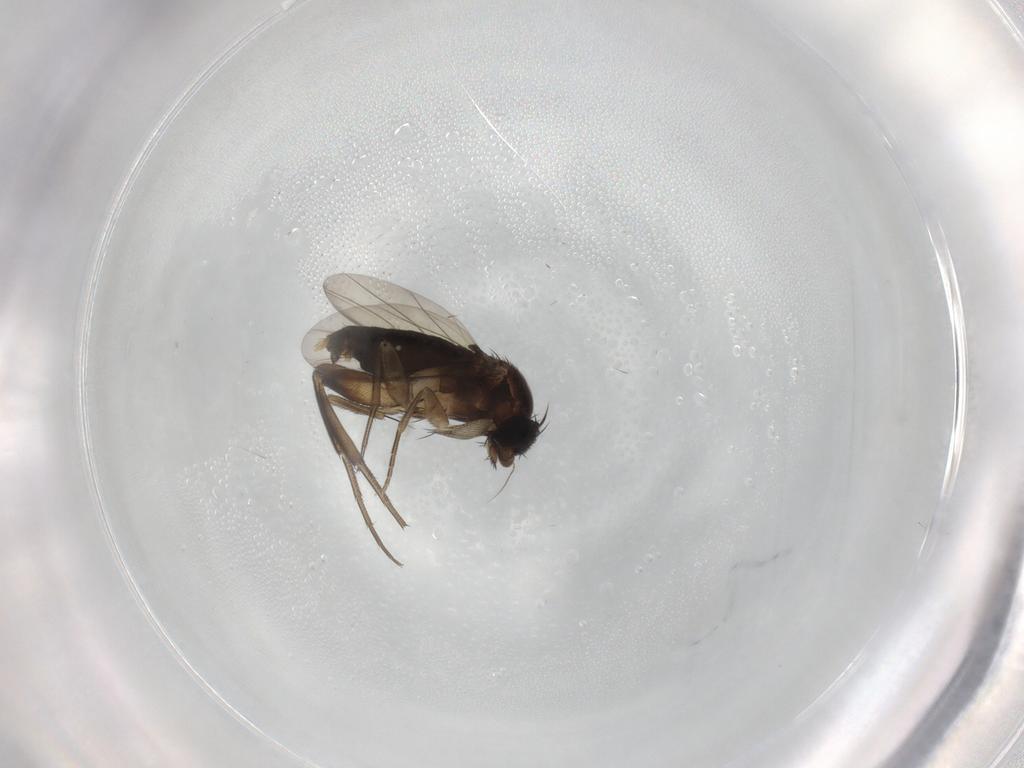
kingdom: Animalia
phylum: Arthropoda
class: Insecta
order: Diptera
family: Phoridae
